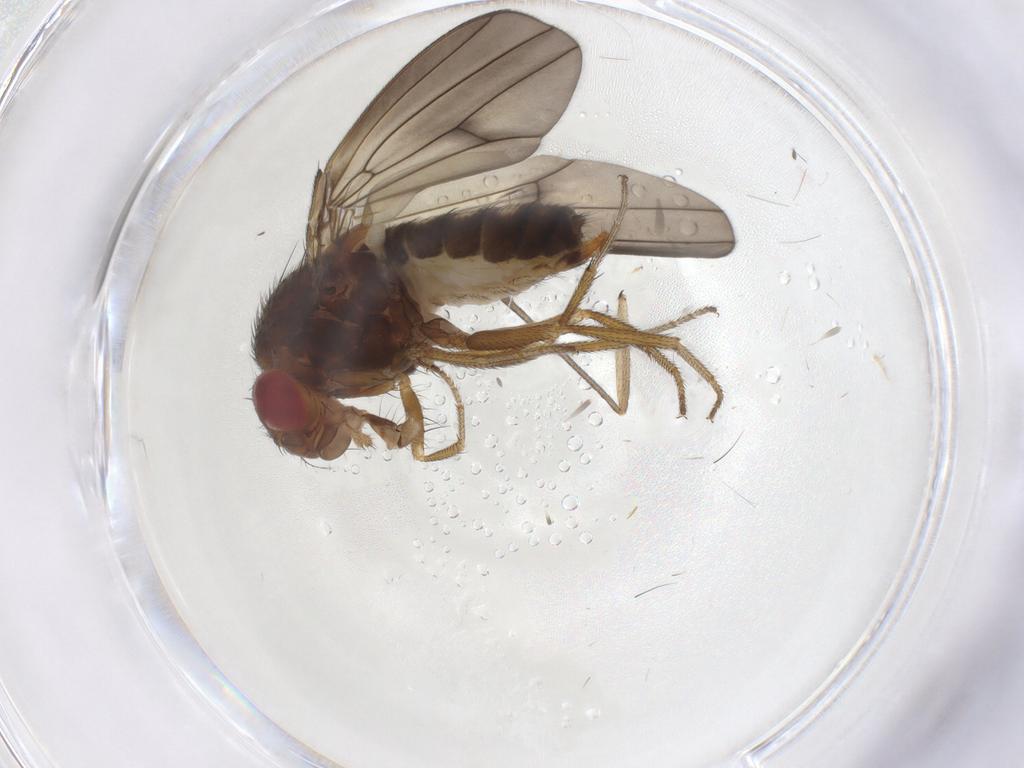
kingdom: Animalia
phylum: Arthropoda
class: Insecta
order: Diptera
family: Drosophilidae
